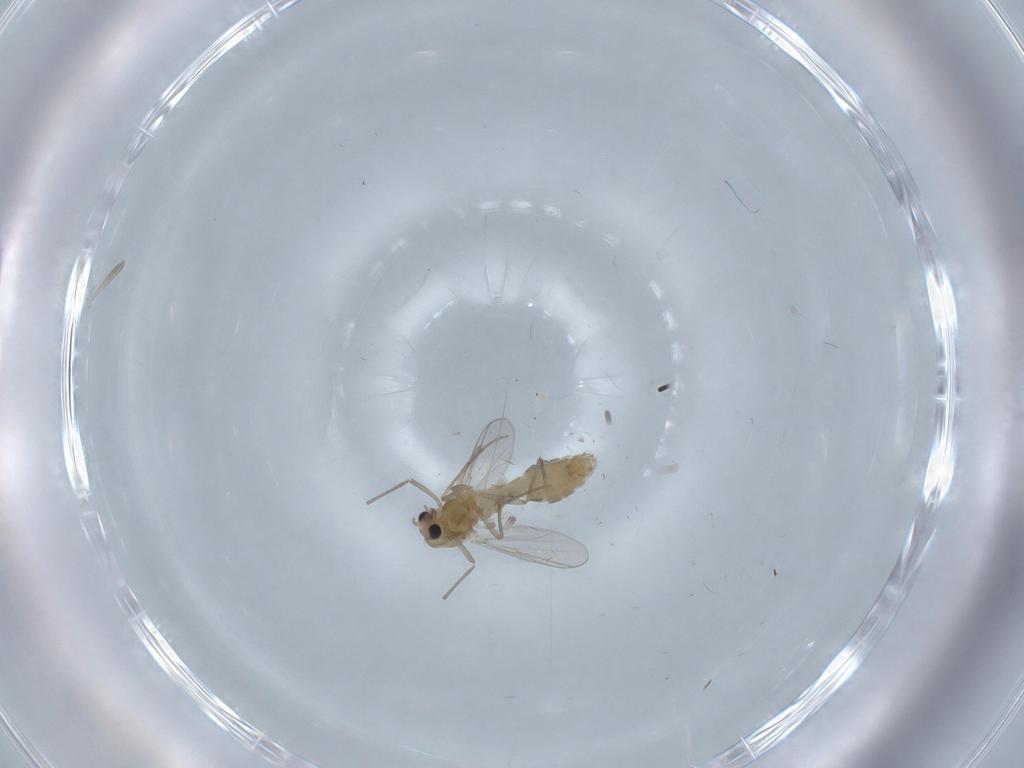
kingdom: Animalia
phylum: Arthropoda
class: Insecta
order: Diptera
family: Chironomidae
